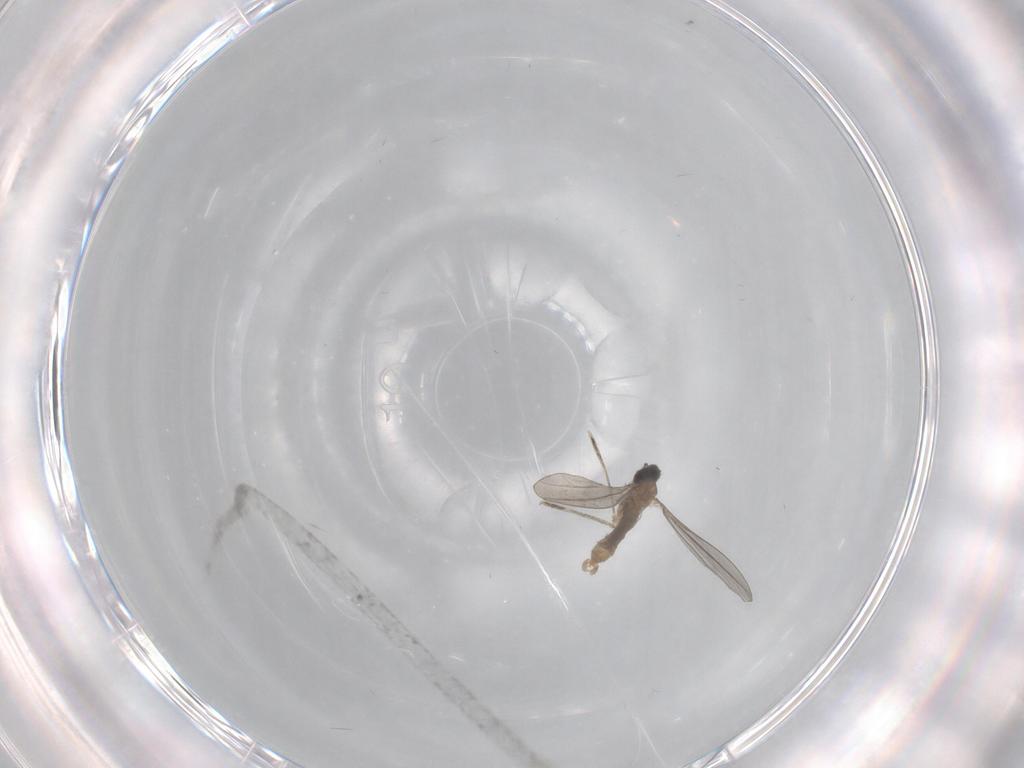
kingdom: Animalia
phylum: Arthropoda
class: Insecta
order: Diptera
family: Cecidomyiidae
